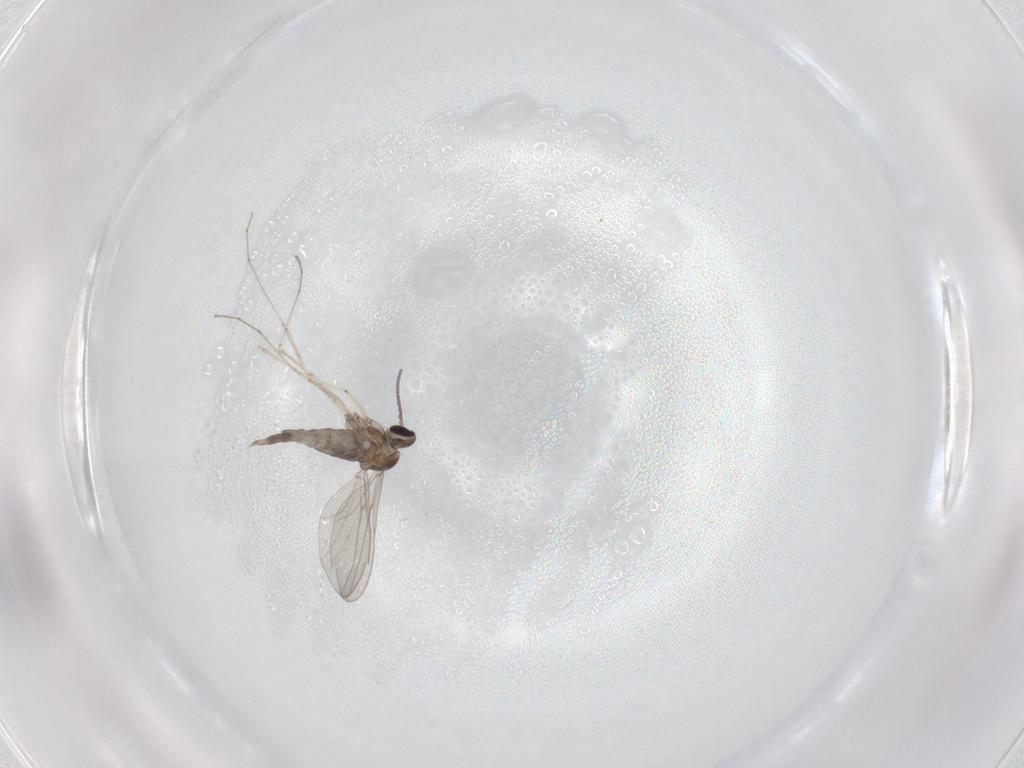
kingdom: Animalia
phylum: Arthropoda
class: Insecta
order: Diptera
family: Cecidomyiidae
